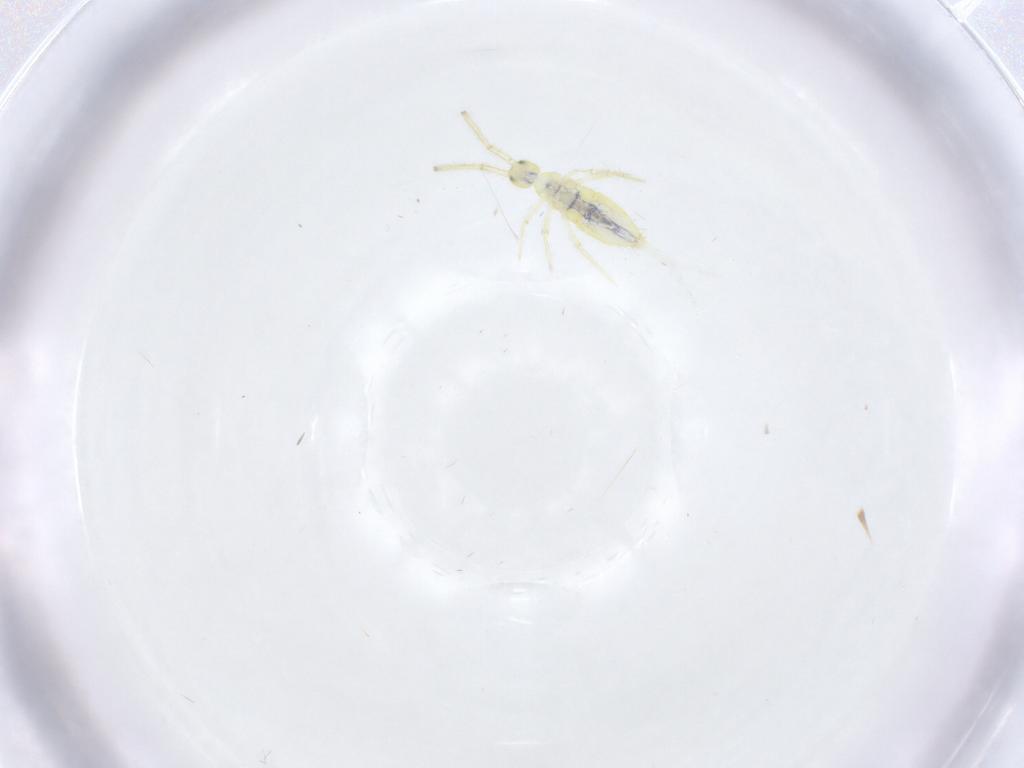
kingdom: Animalia
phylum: Arthropoda
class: Collembola
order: Entomobryomorpha
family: Paronellidae
